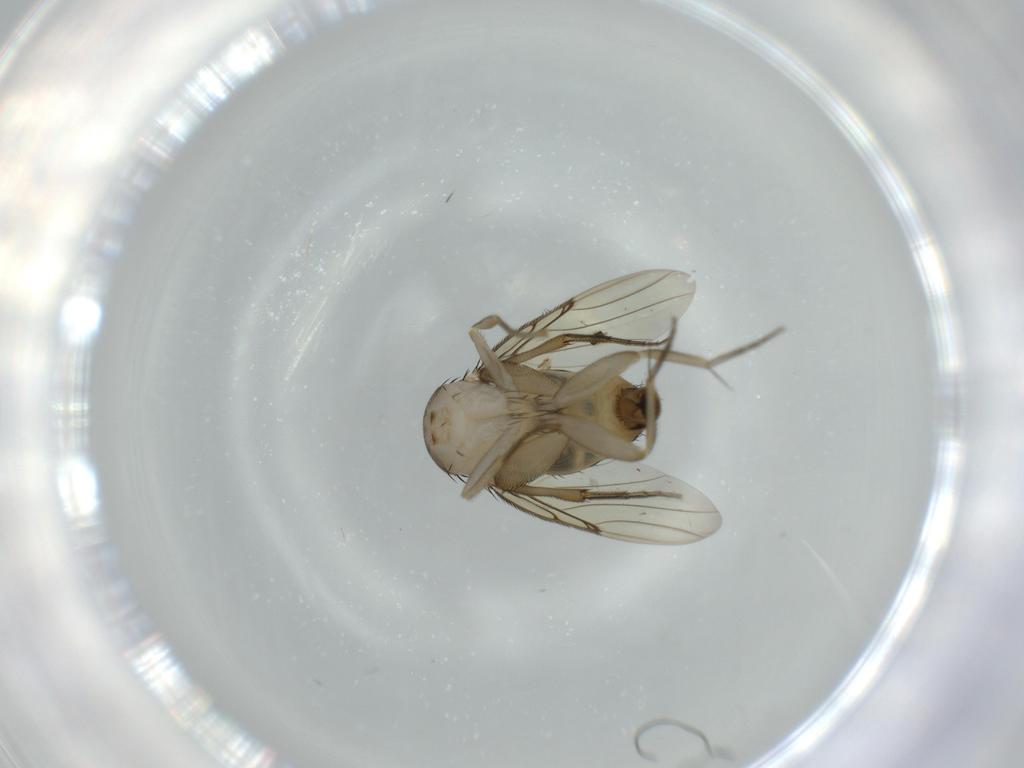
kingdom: Animalia
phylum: Arthropoda
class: Insecta
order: Diptera
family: Phoridae
